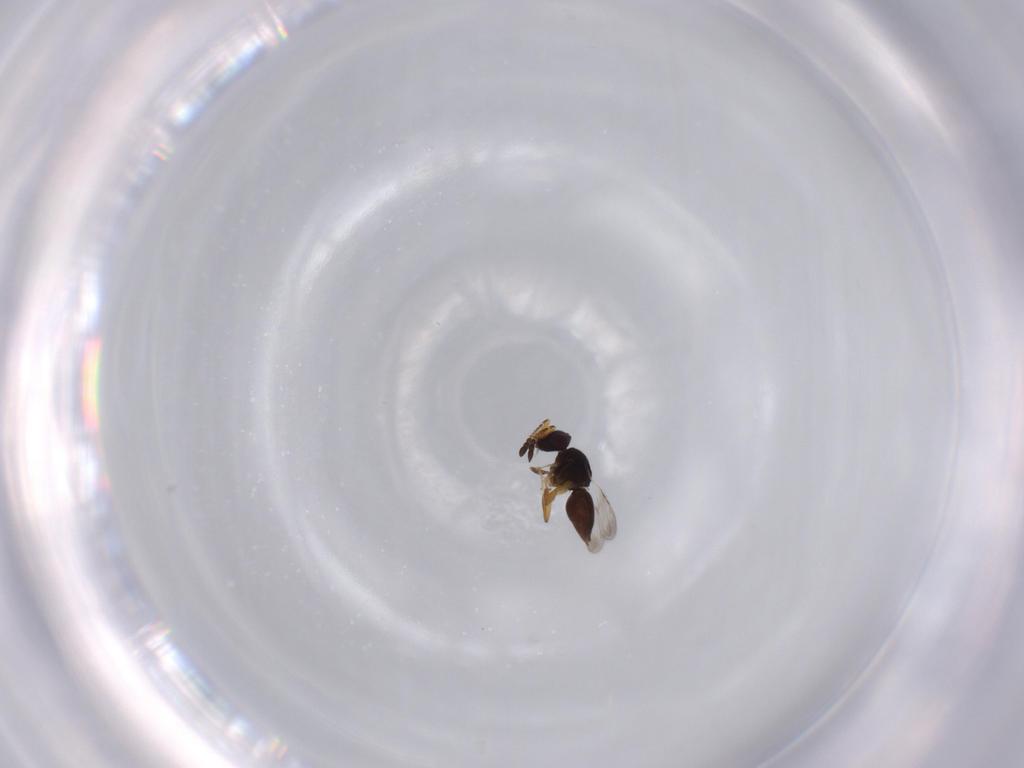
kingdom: Animalia
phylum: Arthropoda
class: Insecta
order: Hymenoptera
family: Ceraphronidae
